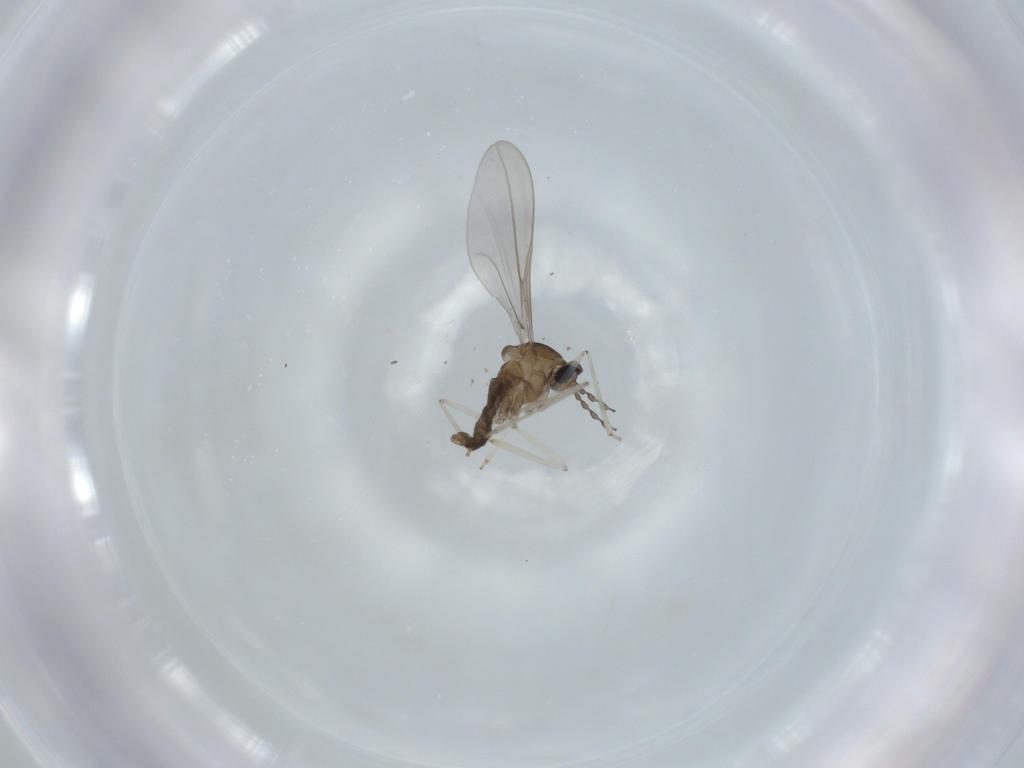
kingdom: Animalia
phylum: Arthropoda
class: Insecta
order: Diptera
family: Cecidomyiidae
